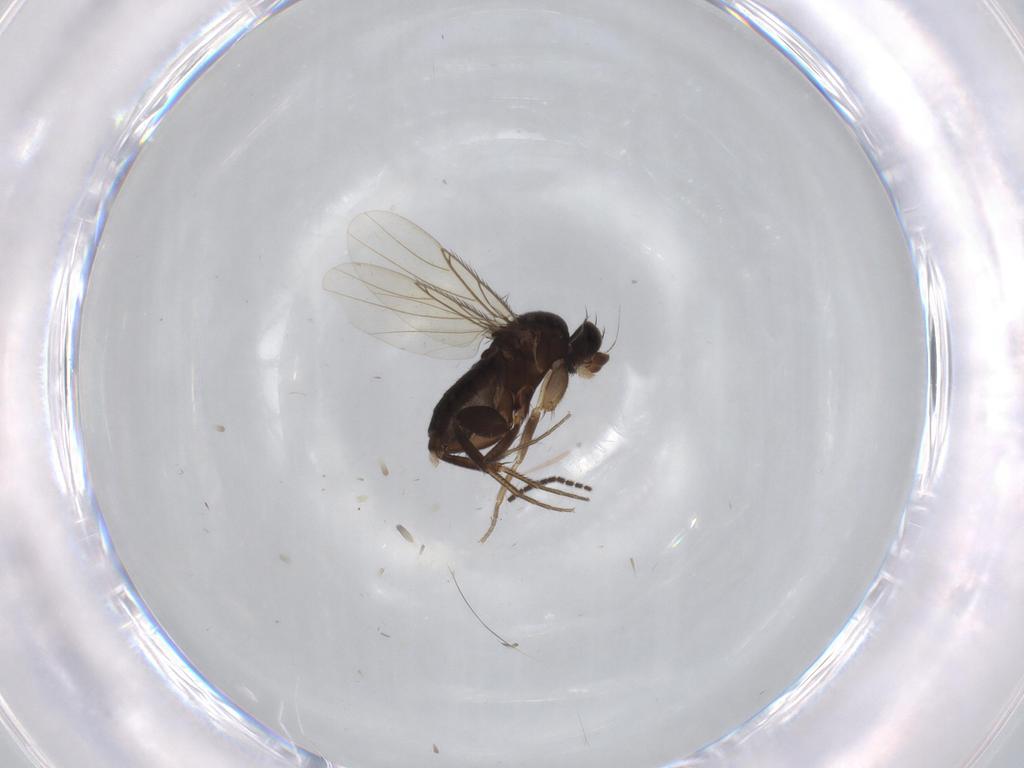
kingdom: Animalia
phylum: Arthropoda
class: Insecta
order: Diptera
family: Sciaridae
